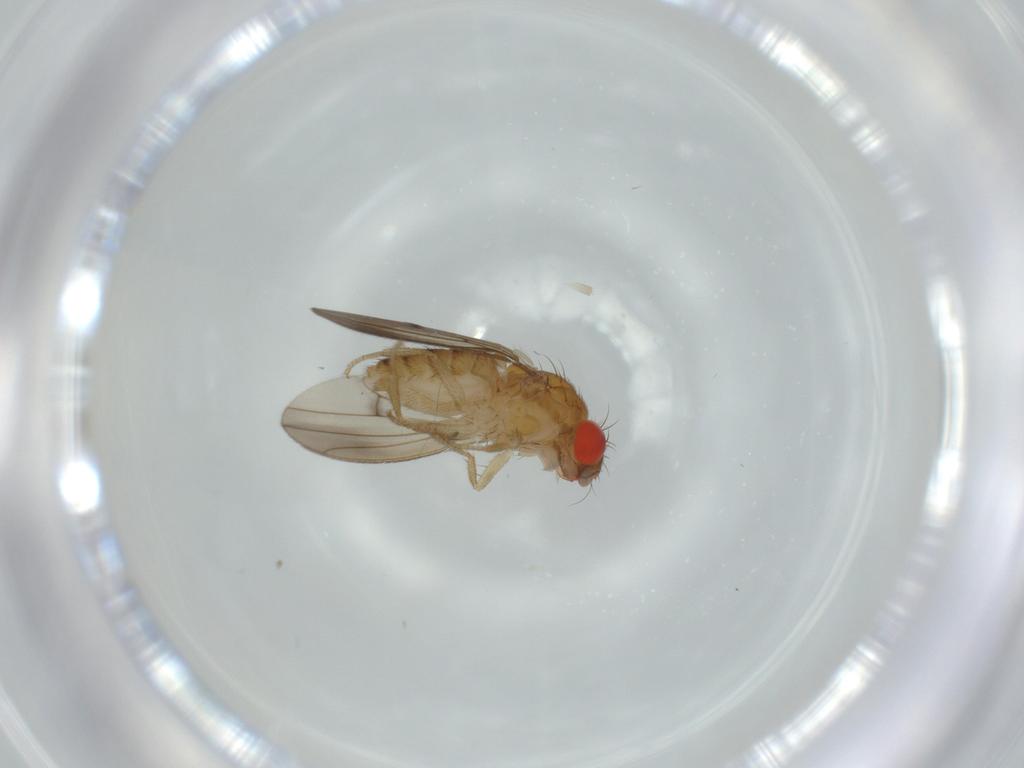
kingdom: Animalia
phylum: Arthropoda
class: Insecta
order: Diptera
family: Drosophilidae
